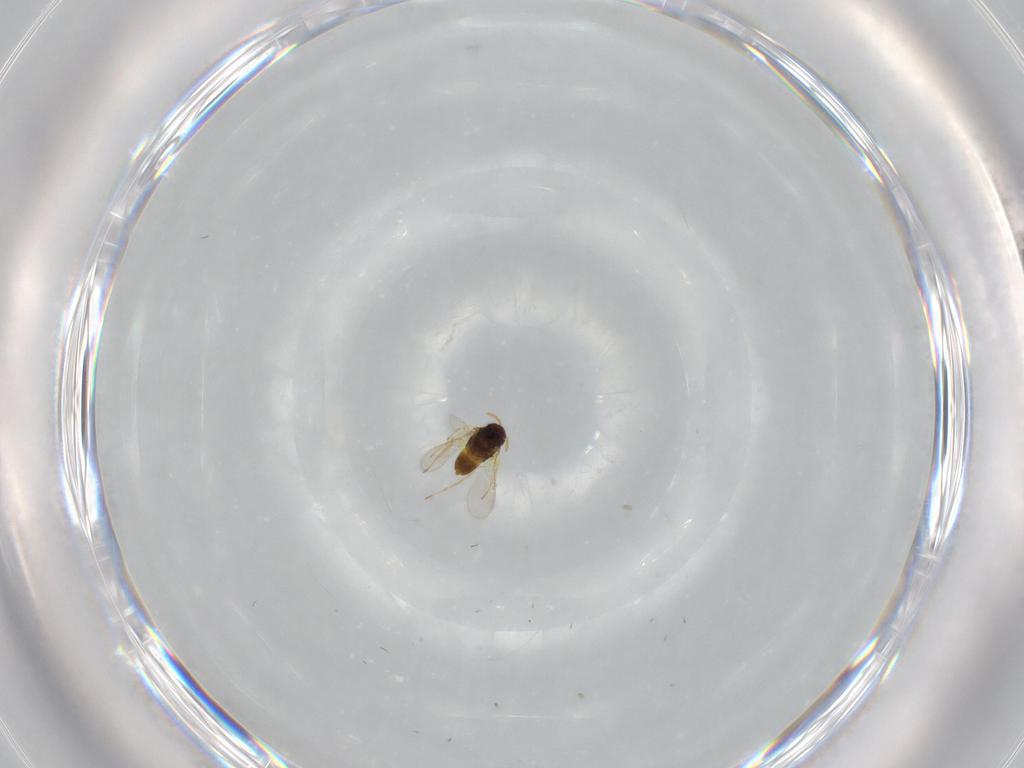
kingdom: Animalia
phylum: Arthropoda
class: Insecta
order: Hymenoptera
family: Aphelinidae
